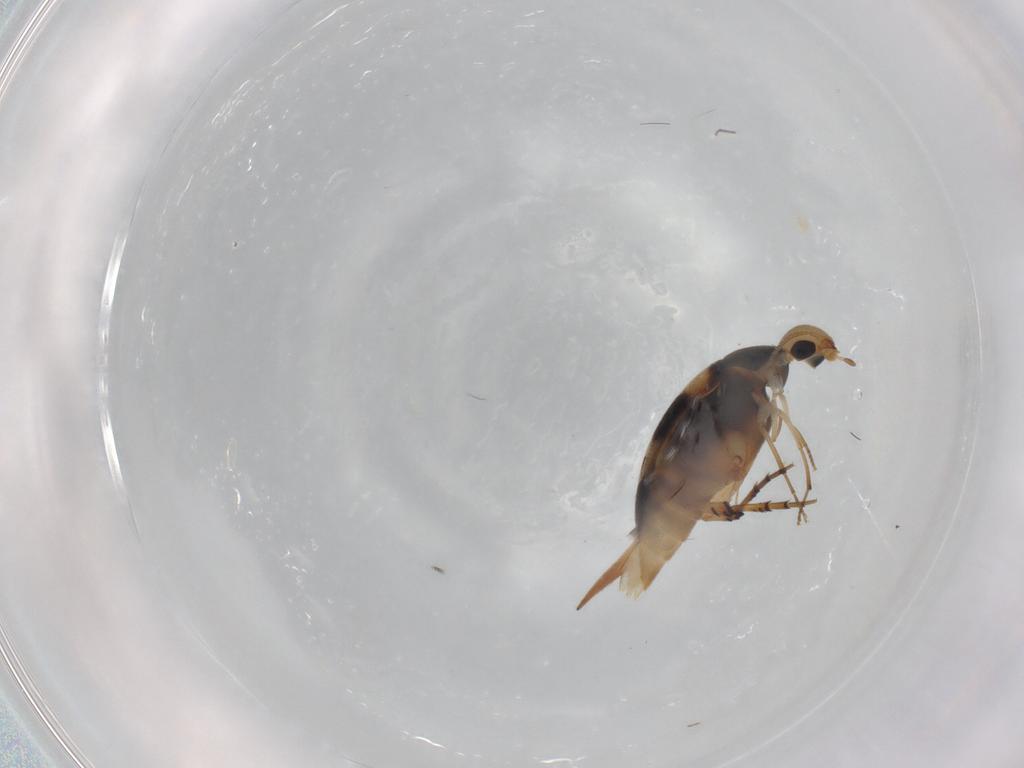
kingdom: Animalia
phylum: Arthropoda
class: Insecta
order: Coleoptera
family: Mordellidae
